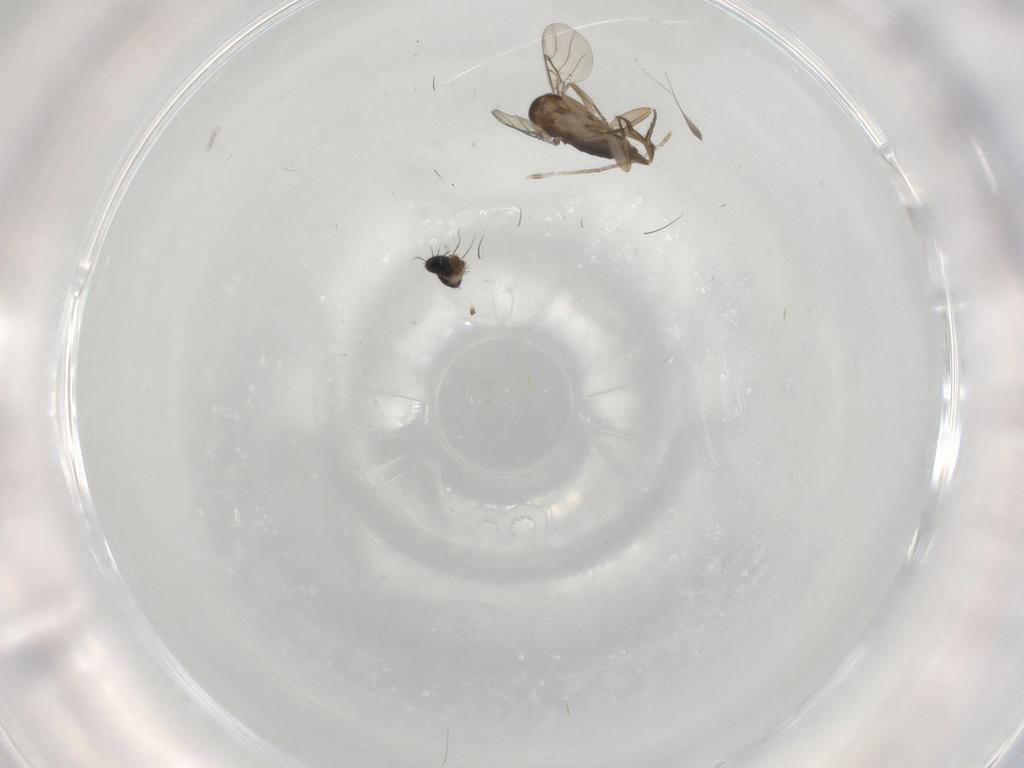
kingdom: Animalia
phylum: Arthropoda
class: Insecta
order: Diptera
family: Phoridae
